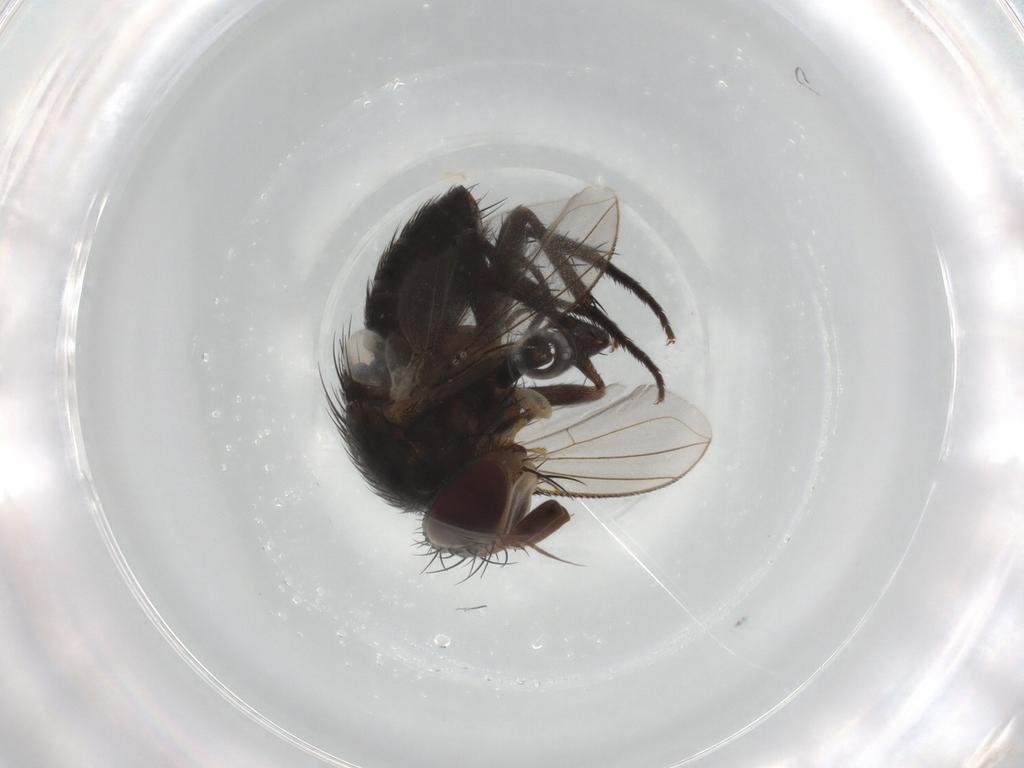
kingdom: Animalia
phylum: Arthropoda
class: Insecta
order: Diptera
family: Tachinidae
